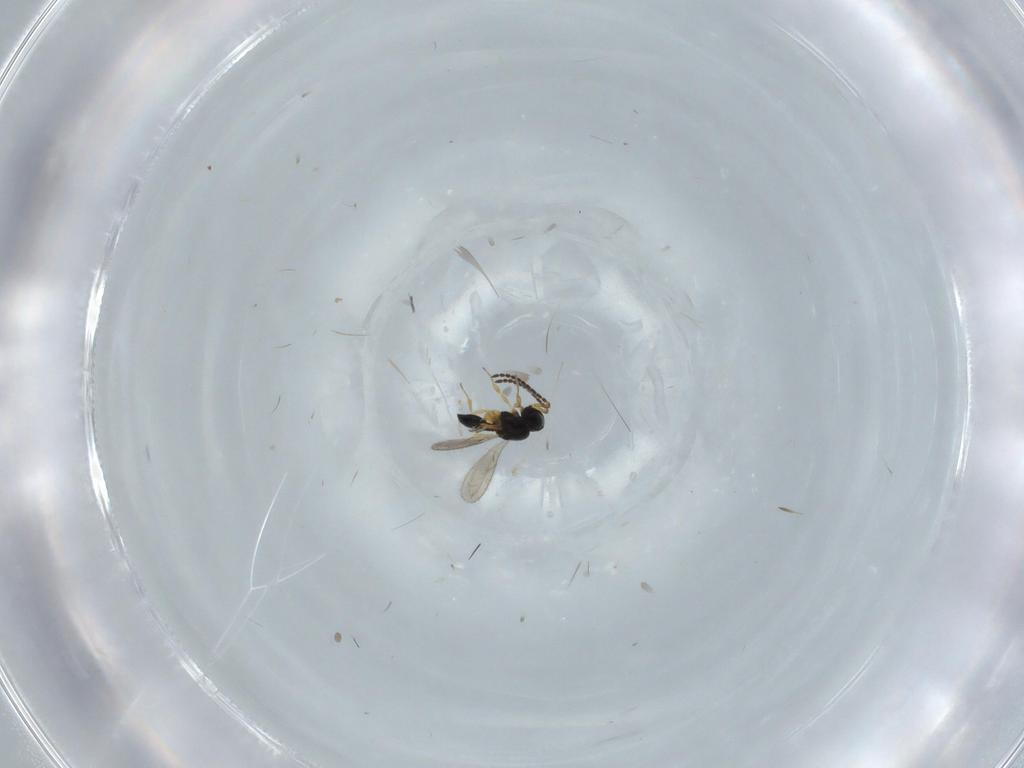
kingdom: Animalia
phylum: Arthropoda
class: Insecta
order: Hymenoptera
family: Scelionidae
